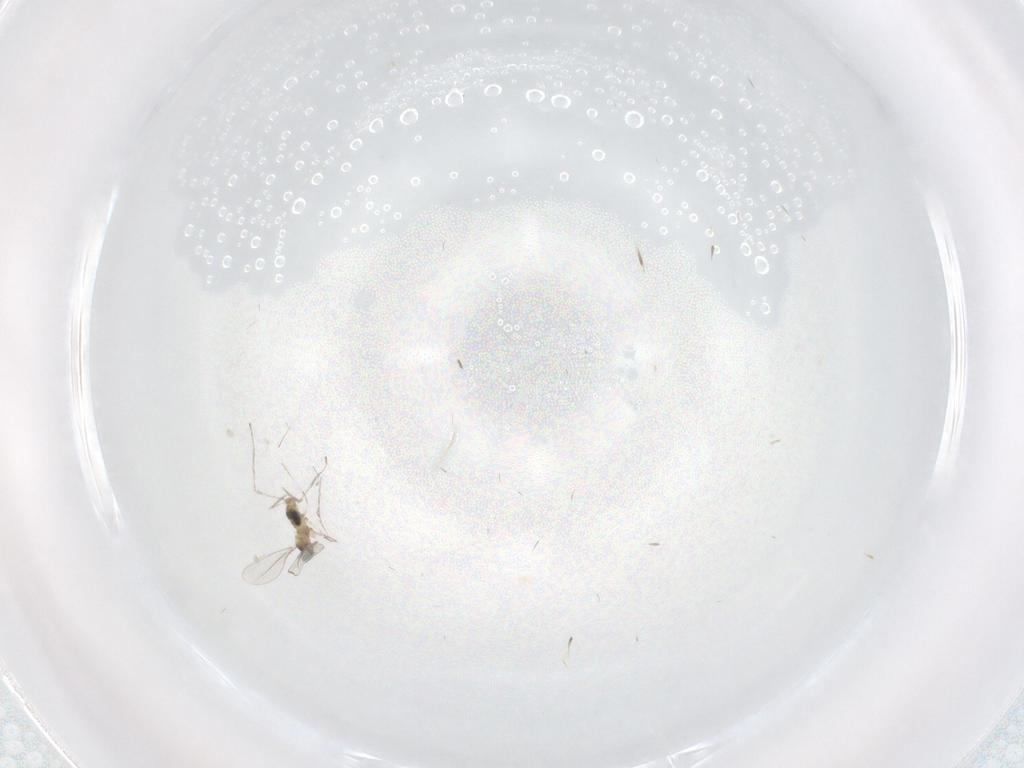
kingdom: Animalia
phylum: Arthropoda
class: Insecta
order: Diptera
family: Cecidomyiidae
